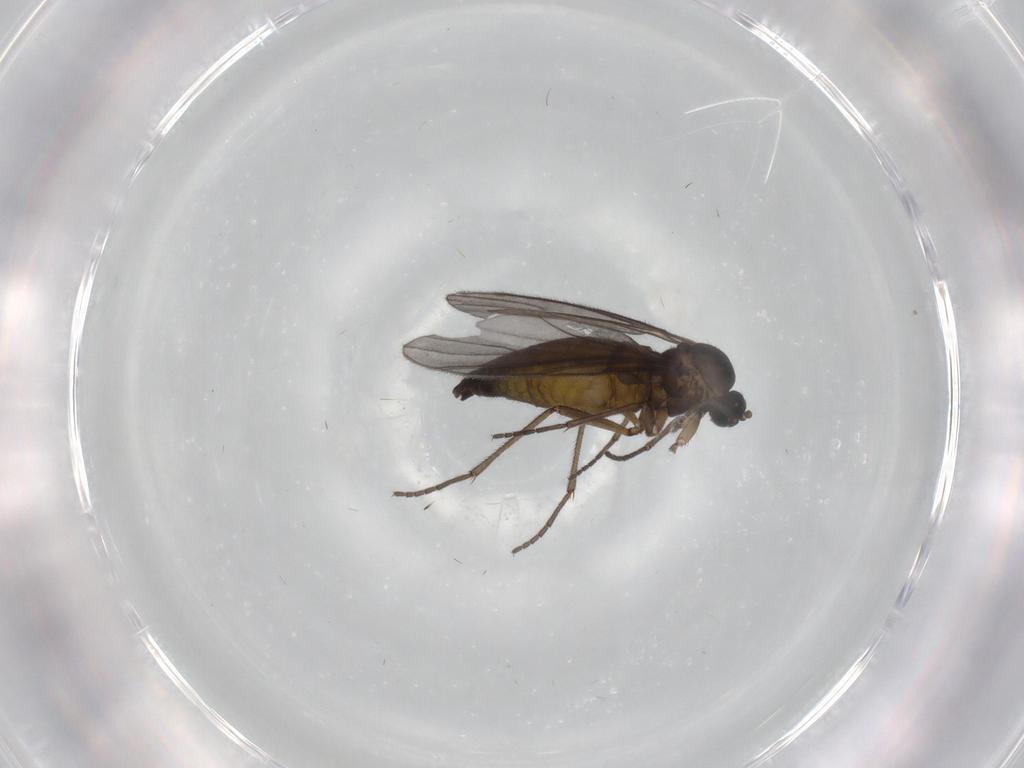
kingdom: Animalia
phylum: Arthropoda
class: Insecta
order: Diptera
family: Sciaridae
